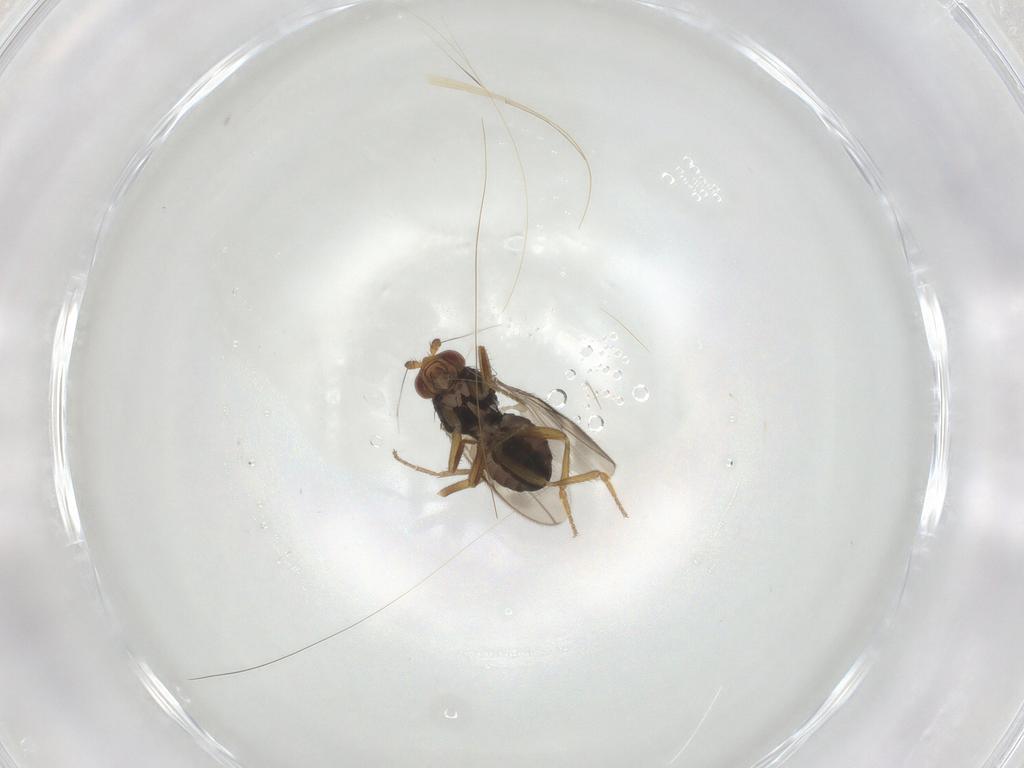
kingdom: Animalia
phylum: Arthropoda
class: Insecta
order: Diptera
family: Sphaeroceridae
